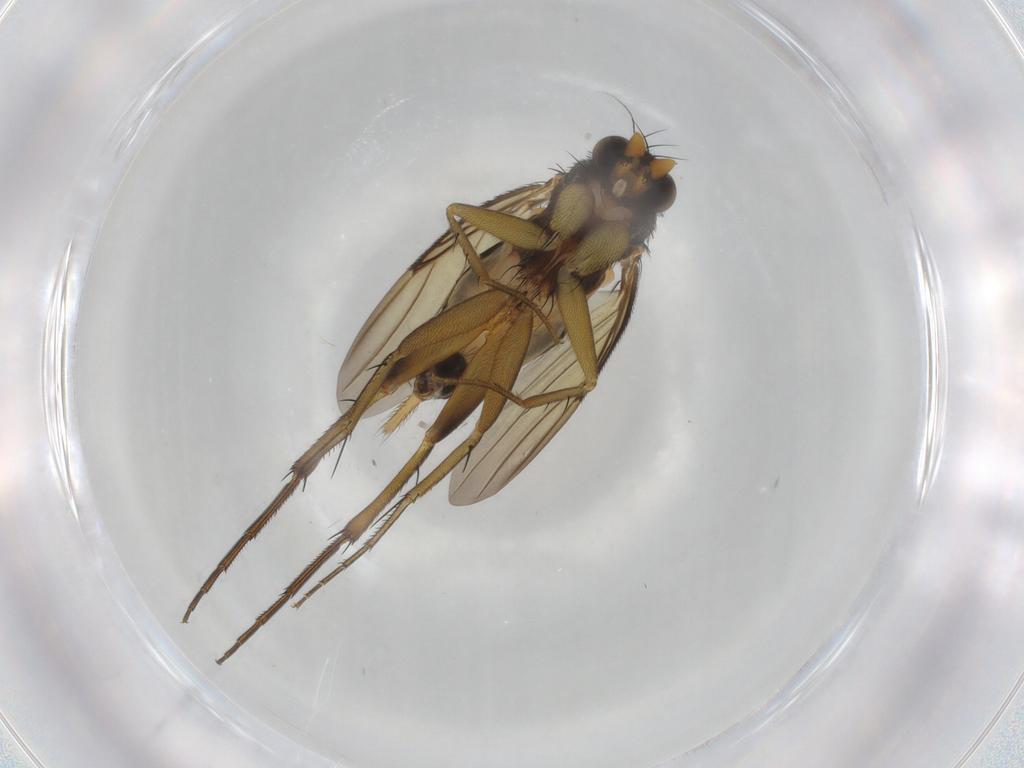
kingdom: Animalia
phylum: Arthropoda
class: Insecta
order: Diptera
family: Phoridae
